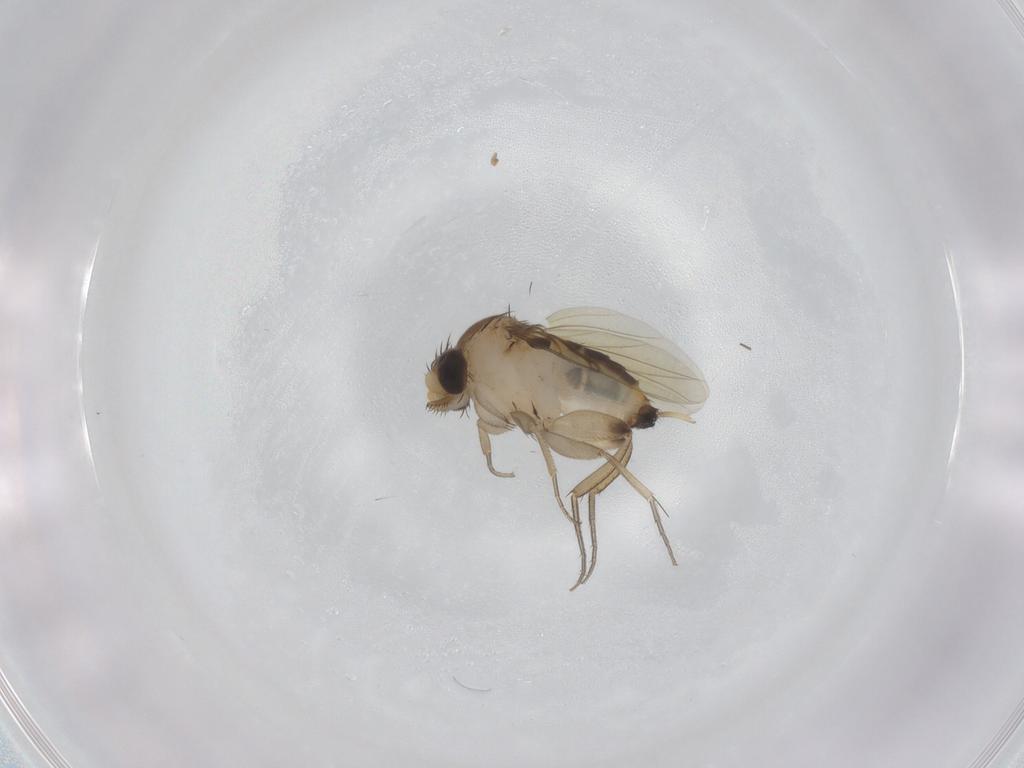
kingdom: Animalia
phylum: Arthropoda
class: Insecta
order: Diptera
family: Phoridae
